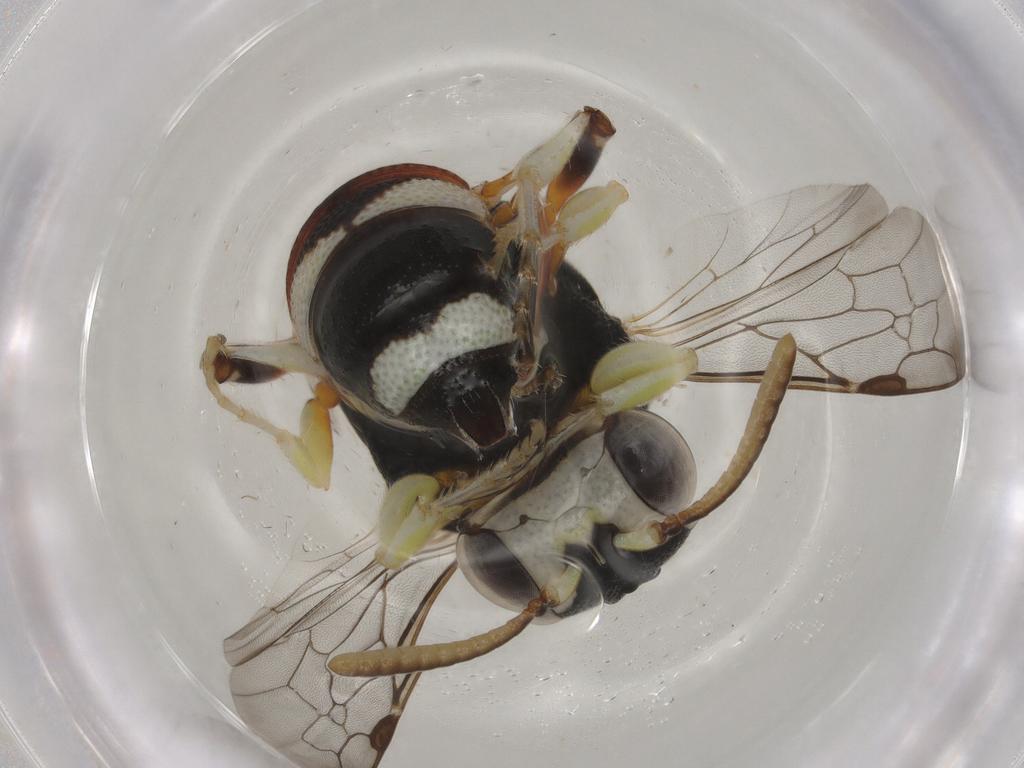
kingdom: Animalia
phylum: Arthropoda
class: Insecta
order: Hymenoptera
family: Crabronidae
